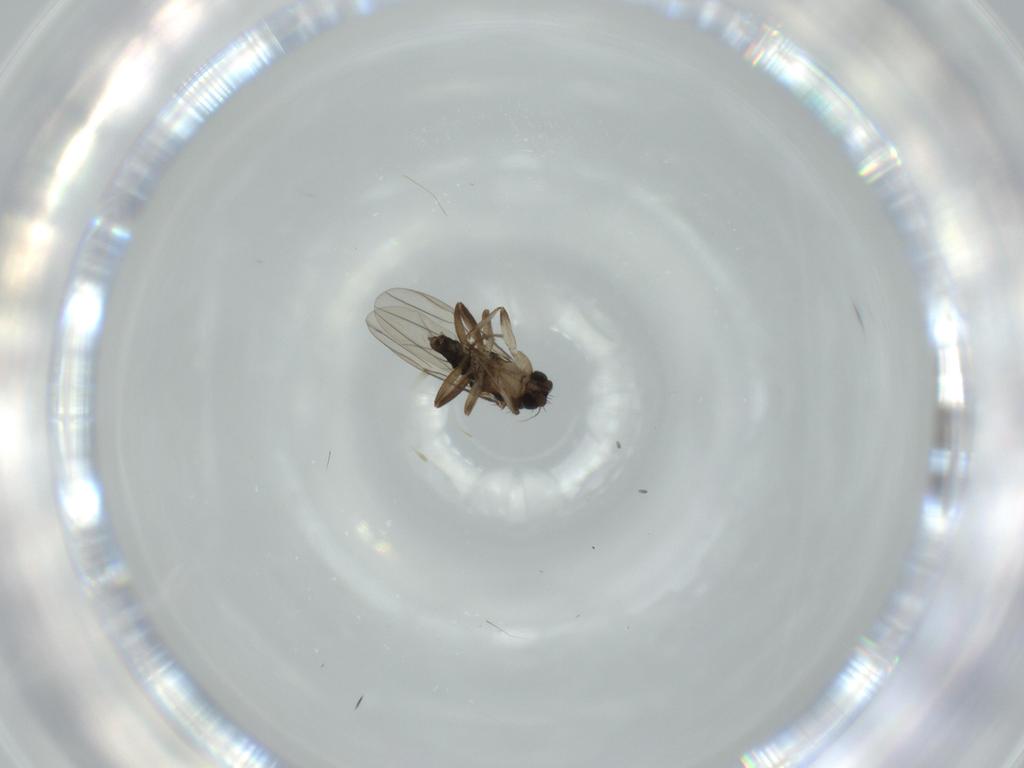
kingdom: Animalia
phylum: Arthropoda
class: Insecta
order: Diptera
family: Phoridae
